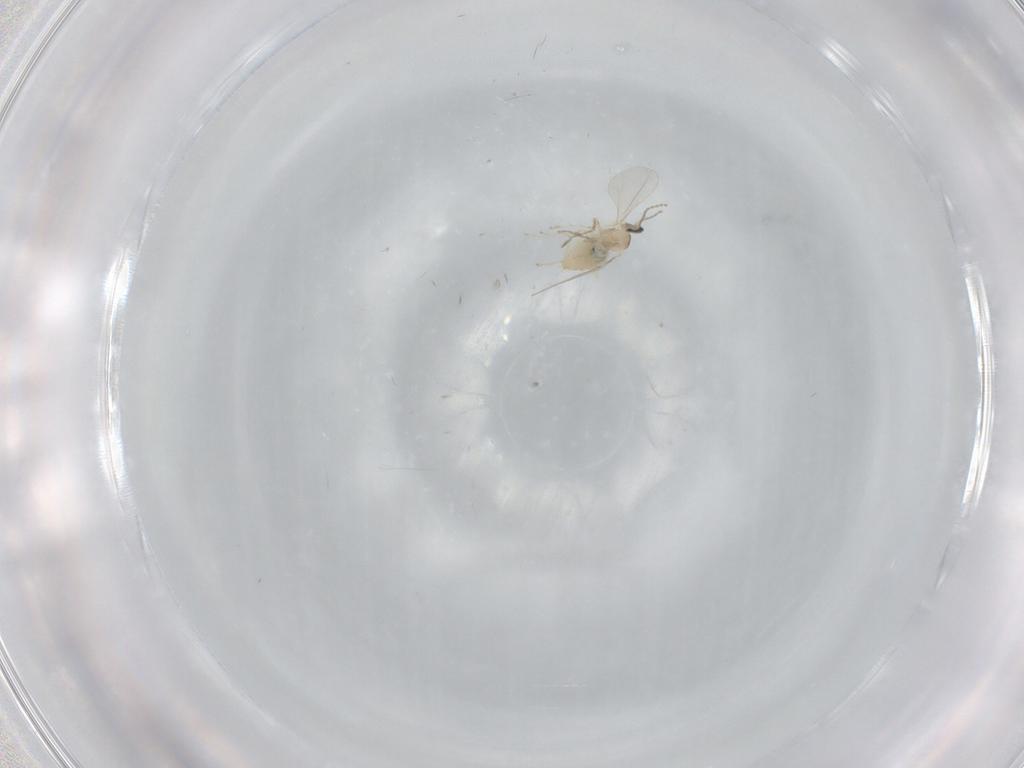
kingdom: Animalia
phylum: Arthropoda
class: Insecta
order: Diptera
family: Cecidomyiidae
